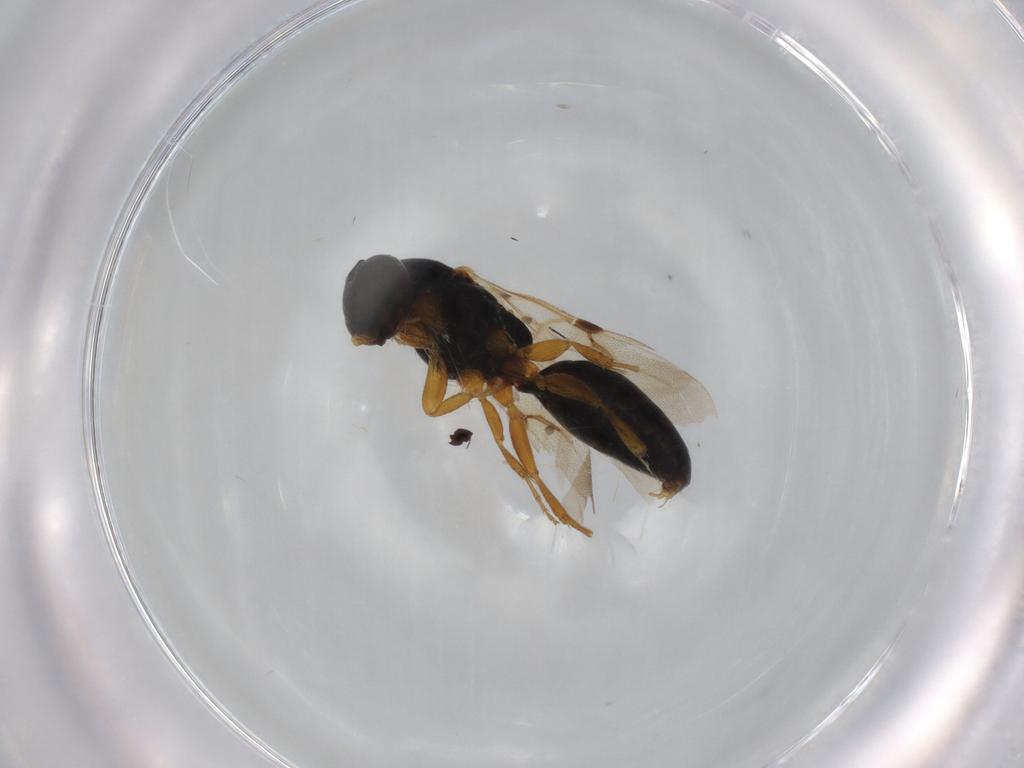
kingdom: Animalia
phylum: Arthropoda
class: Insecta
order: Hymenoptera
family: Bethylidae
